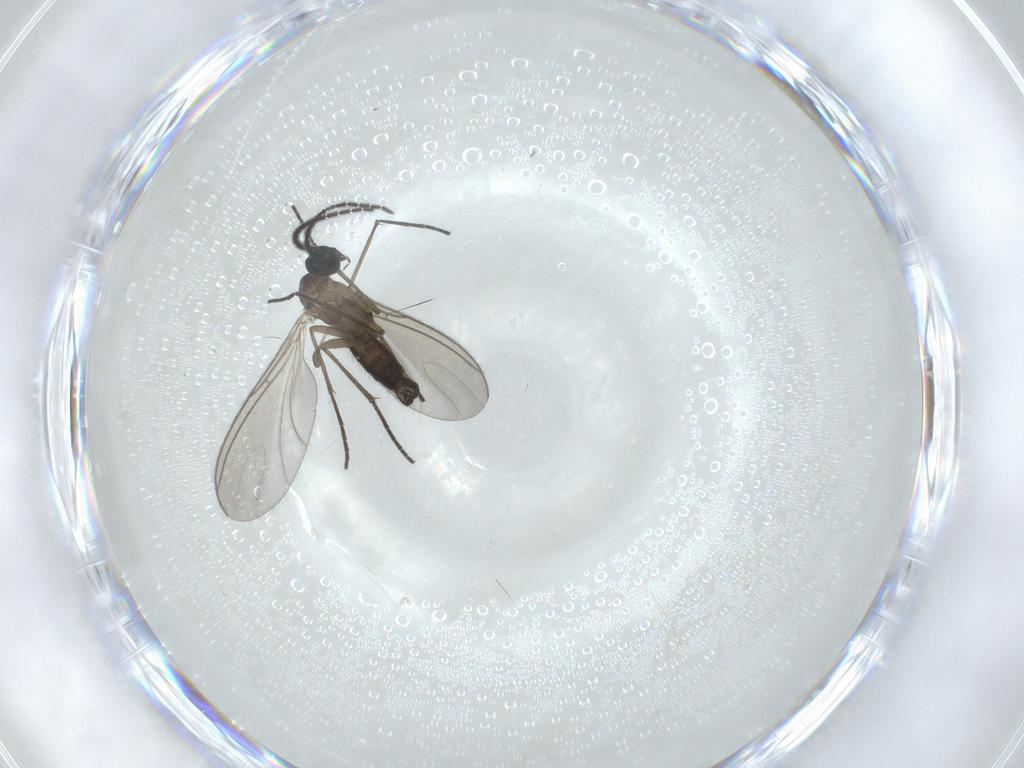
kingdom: Animalia
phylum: Arthropoda
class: Insecta
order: Diptera
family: Sciaridae
